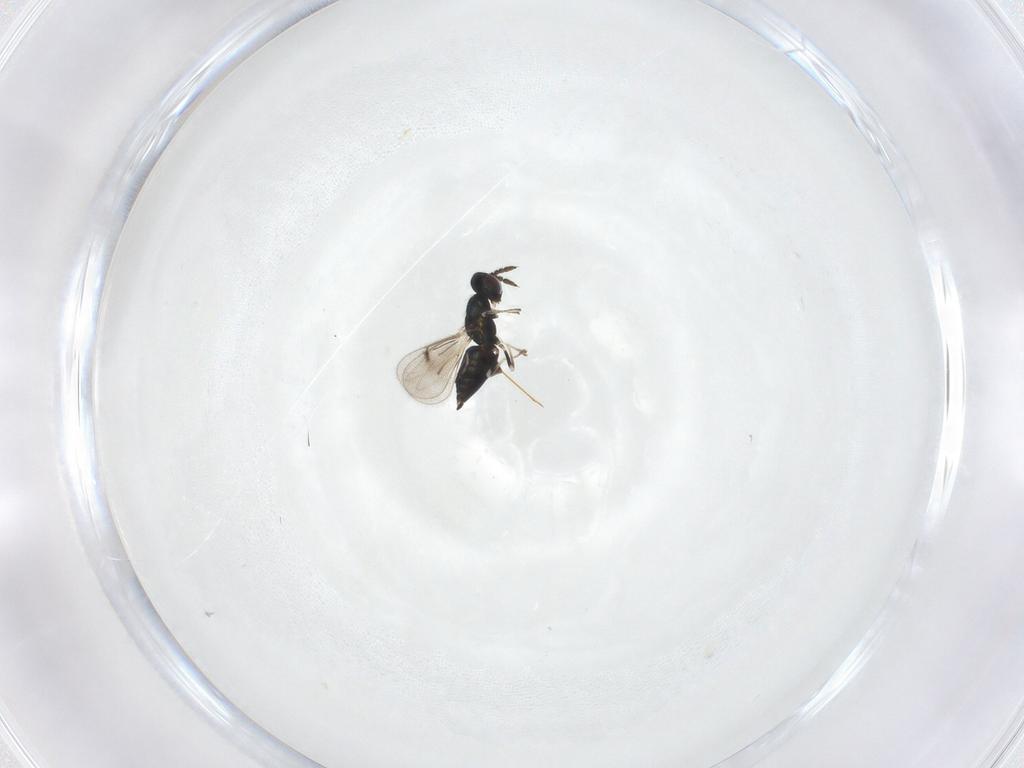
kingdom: Animalia
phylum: Arthropoda
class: Insecta
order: Hymenoptera
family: Eulophidae
